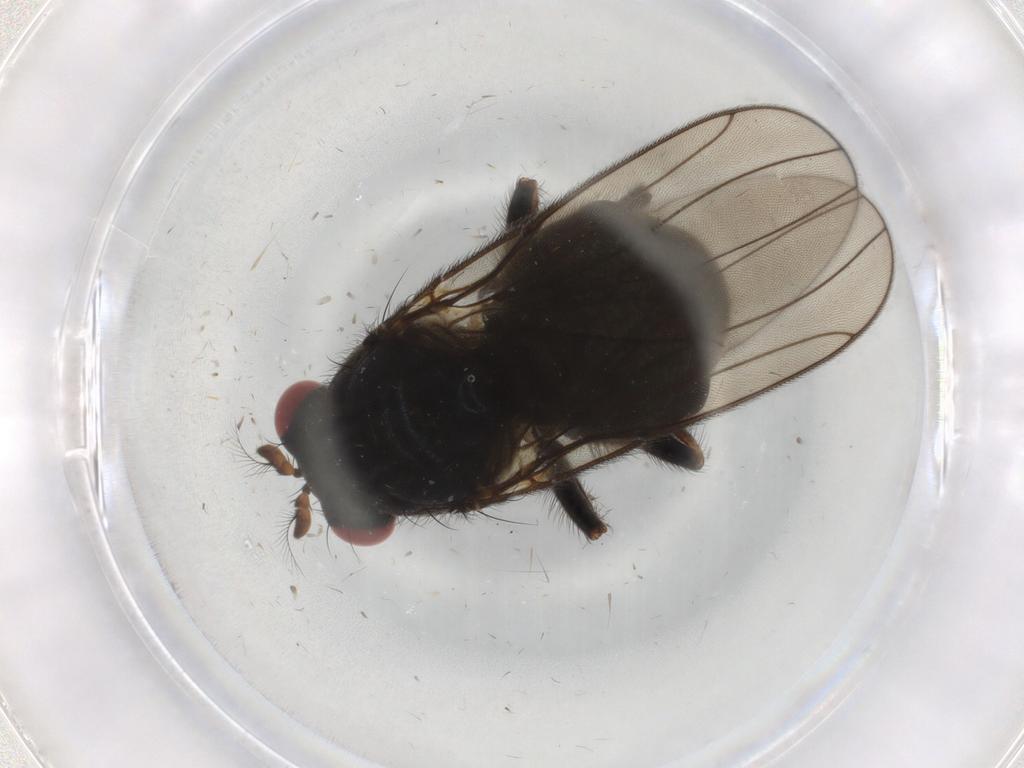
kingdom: Animalia
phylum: Arthropoda
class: Insecta
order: Diptera
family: Ephydridae
